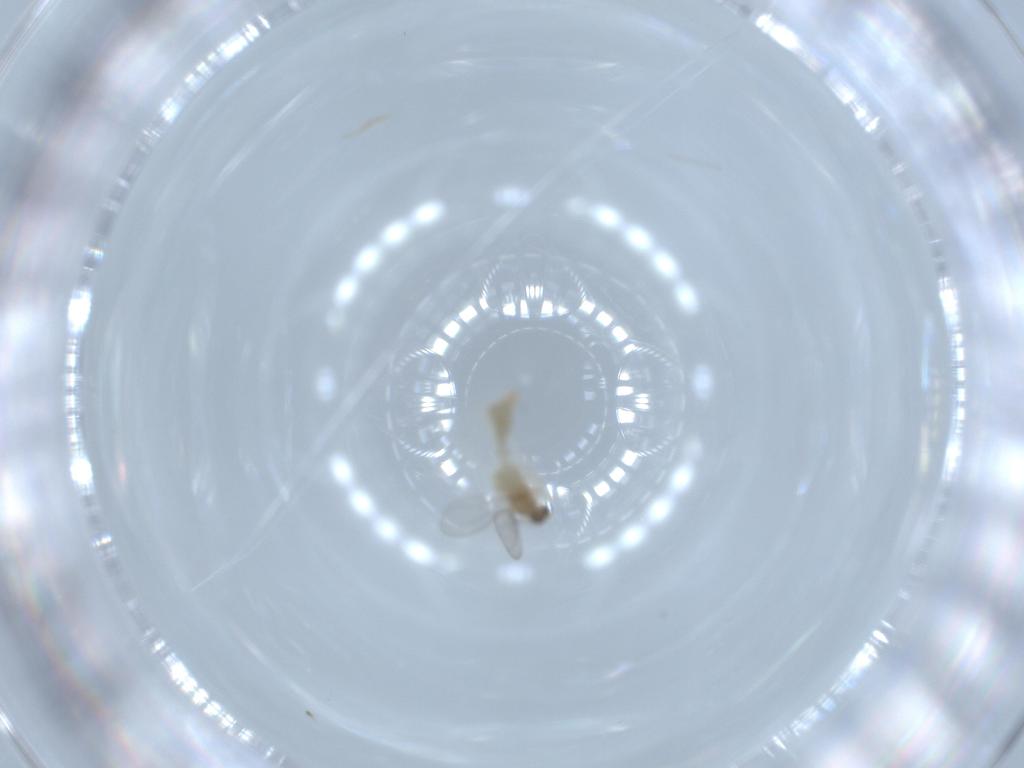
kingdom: Animalia
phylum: Arthropoda
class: Insecta
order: Diptera
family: Cecidomyiidae
